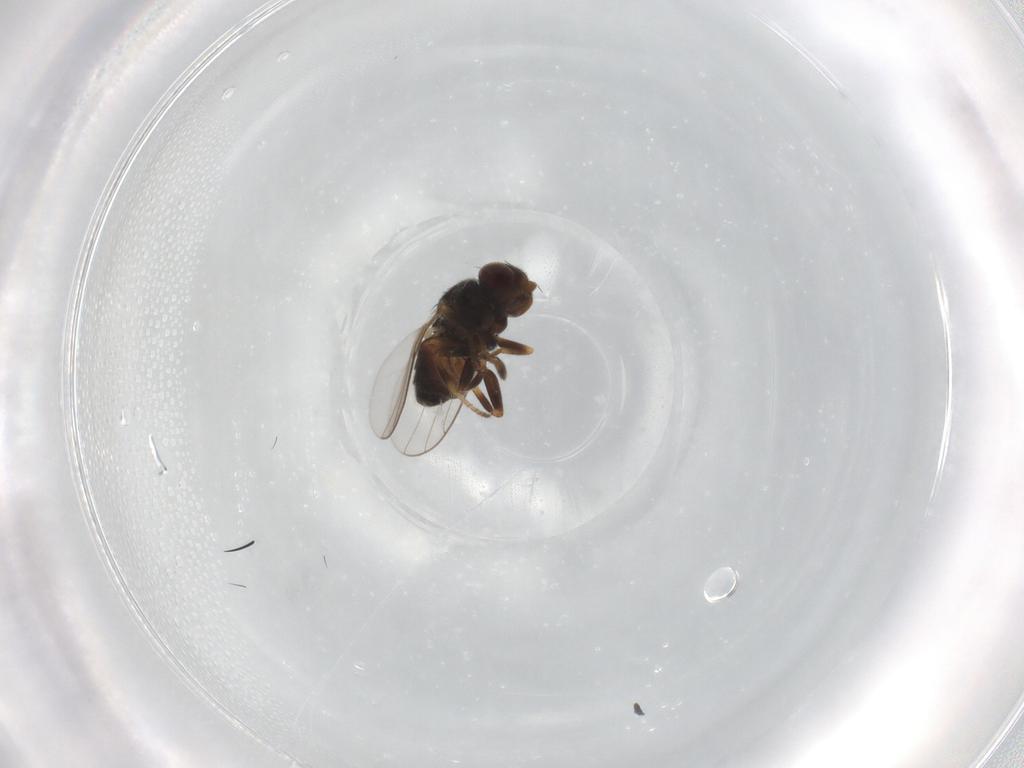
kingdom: Animalia
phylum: Arthropoda
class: Insecta
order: Diptera
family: Chloropidae
